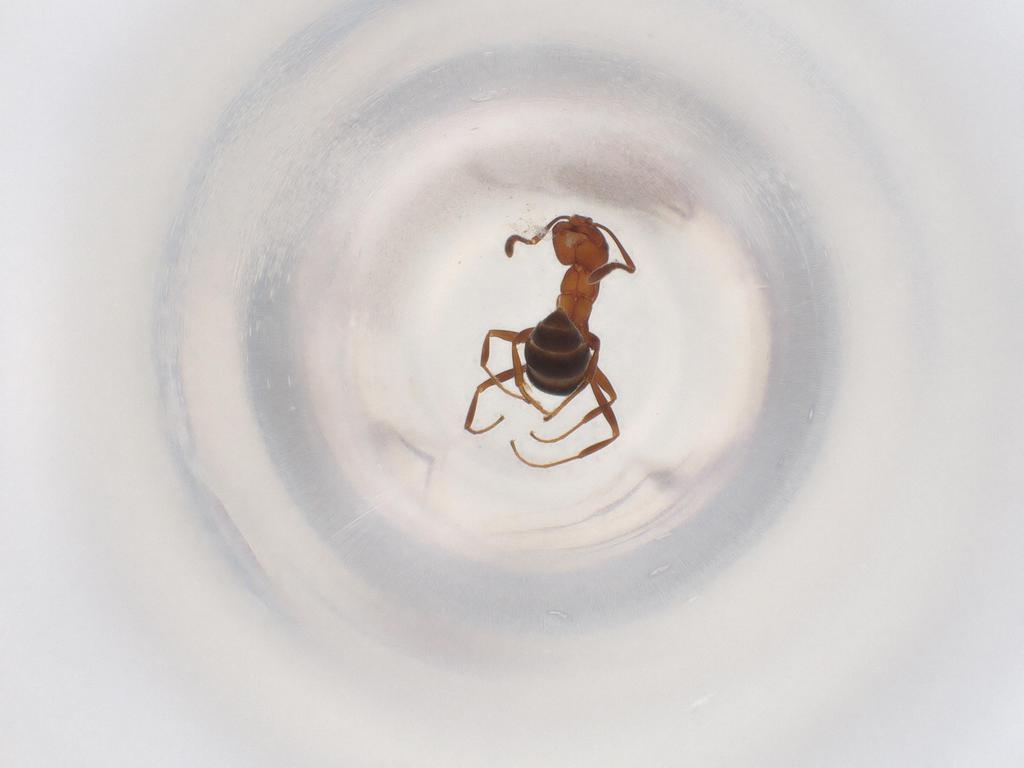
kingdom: Animalia
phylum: Arthropoda
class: Insecta
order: Hymenoptera
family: Formicidae
